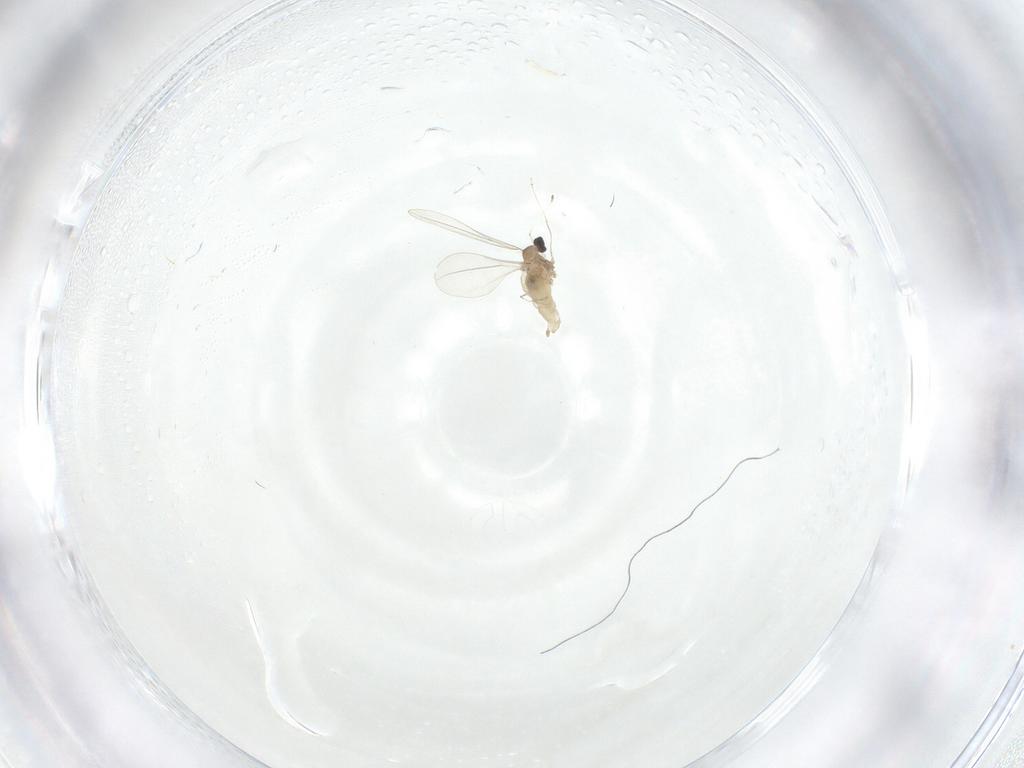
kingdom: Animalia
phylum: Arthropoda
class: Insecta
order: Diptera
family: Cecidomyiidae
